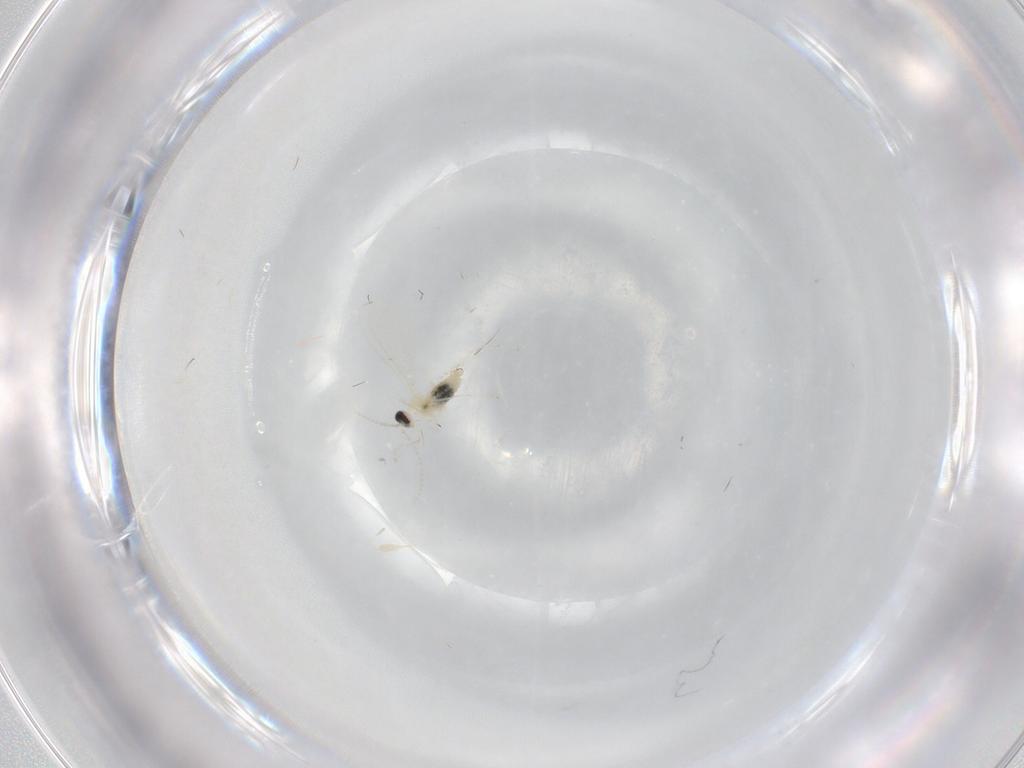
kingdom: Animalia
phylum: Arthropoda
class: Insecta
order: Diptera
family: Cecidomyiidae
